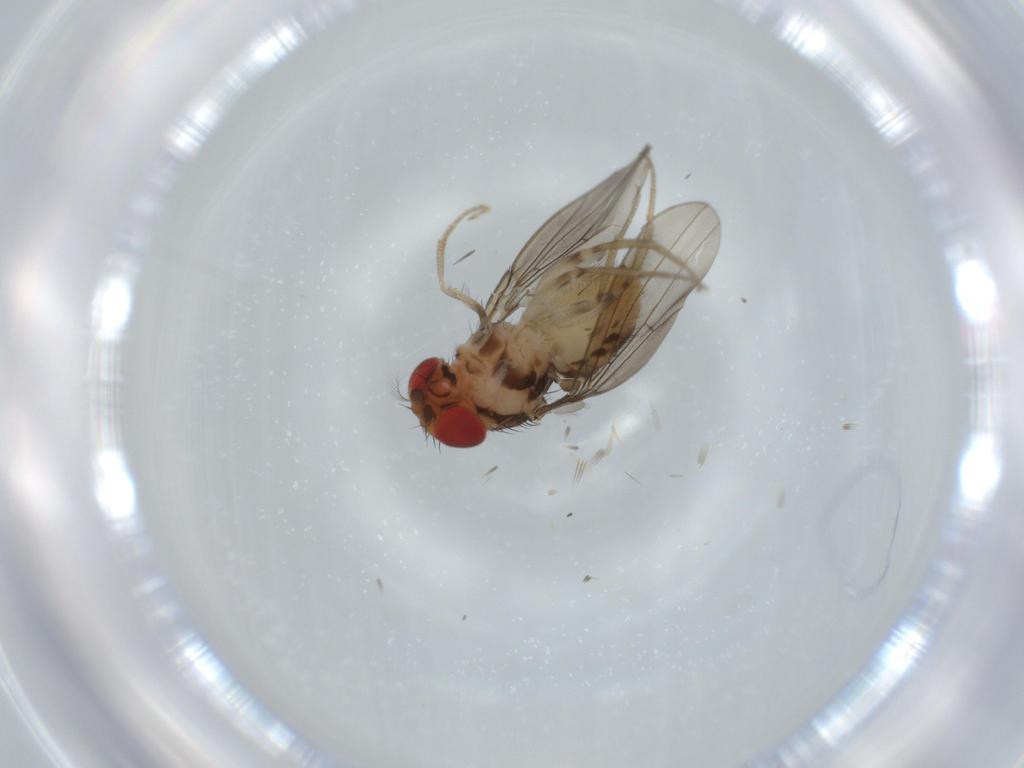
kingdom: Animalia
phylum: Arthropoda
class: Insecta
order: Diptera
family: Drosophilidae
